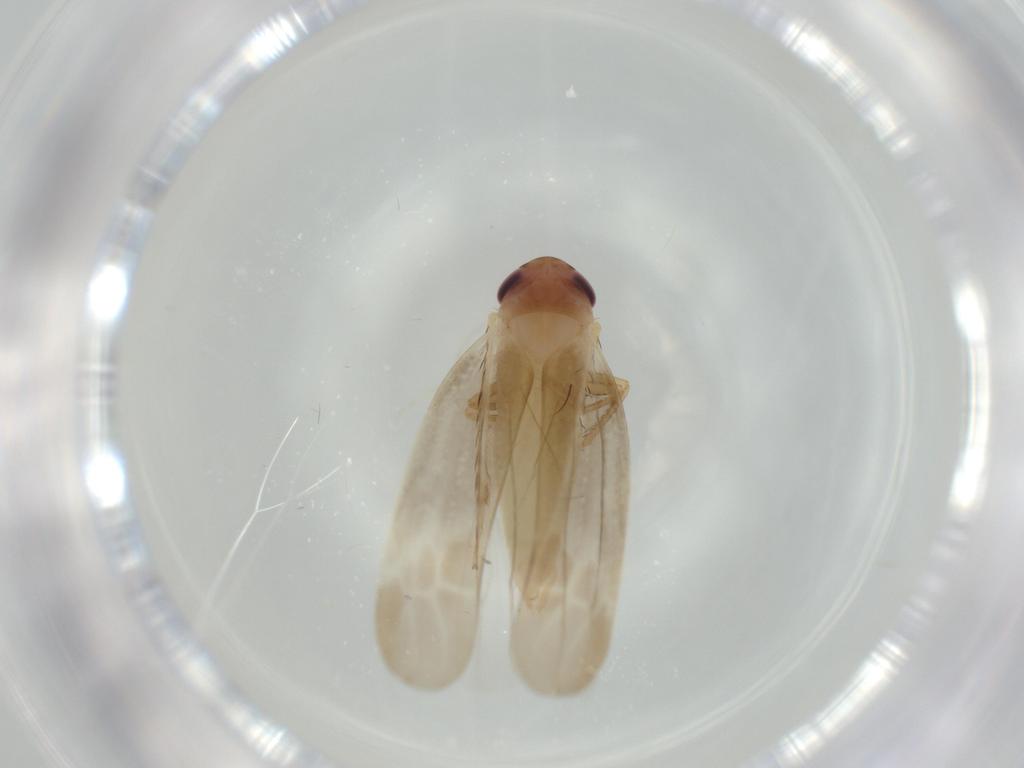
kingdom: Animalia
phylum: Arthropoda
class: Insecta
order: Hemiptera
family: Cicadellidae
